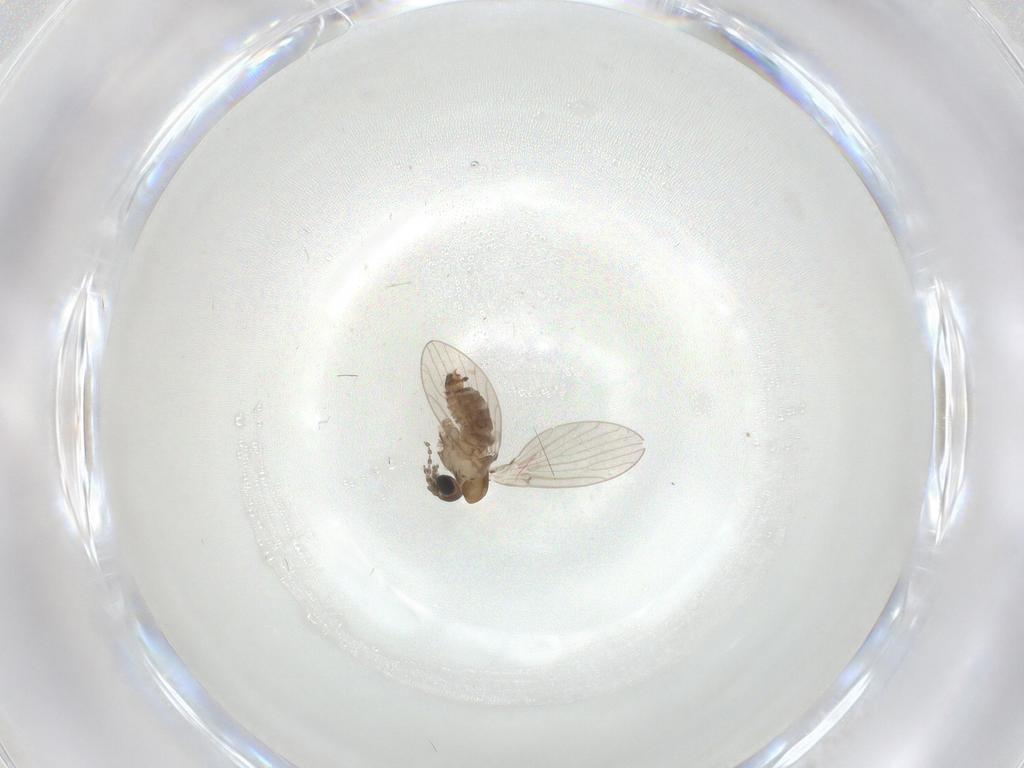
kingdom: Animalia
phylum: Arthropoda
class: Insecta
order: Diptera
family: Psychodidae
